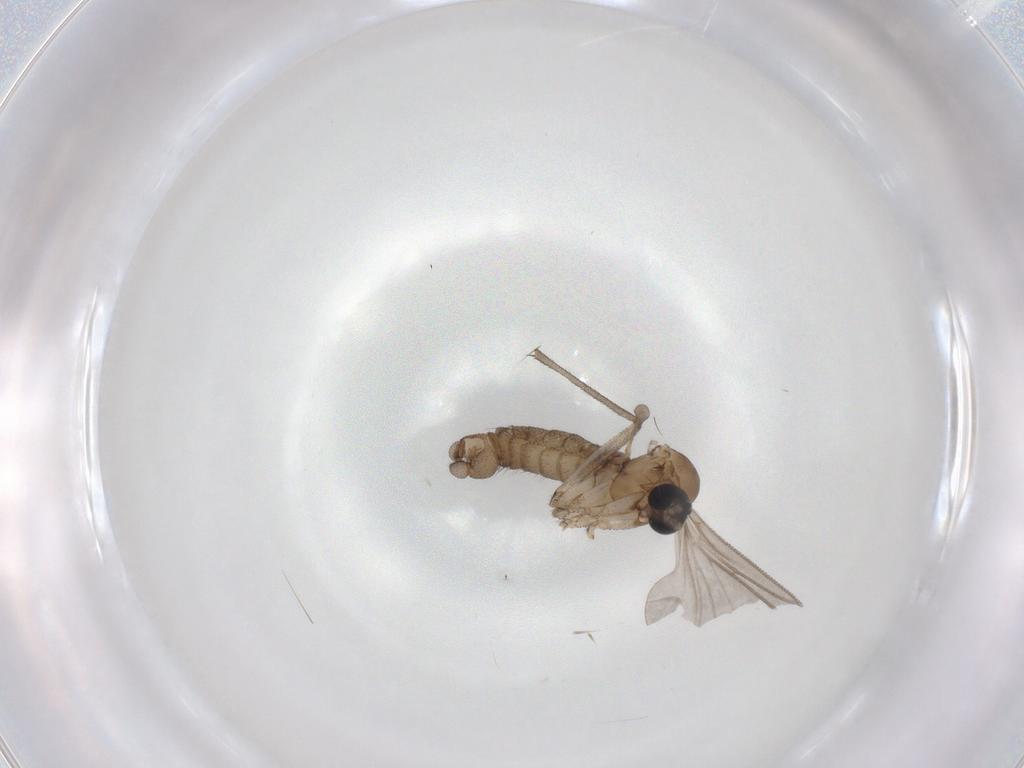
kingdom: Animalia
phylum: Arthropoda
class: Insecta
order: Diptera
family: Sciaridae
